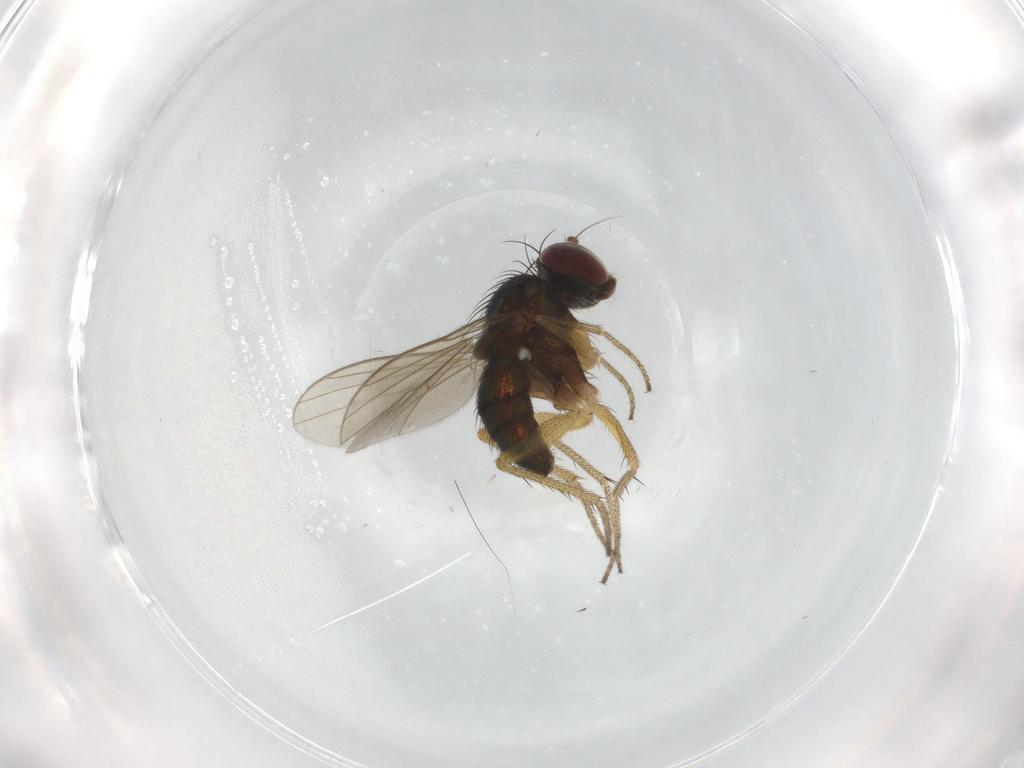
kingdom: Animalia
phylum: Arthropoda
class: Insecta
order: Diptera
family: Dolichopodidae
